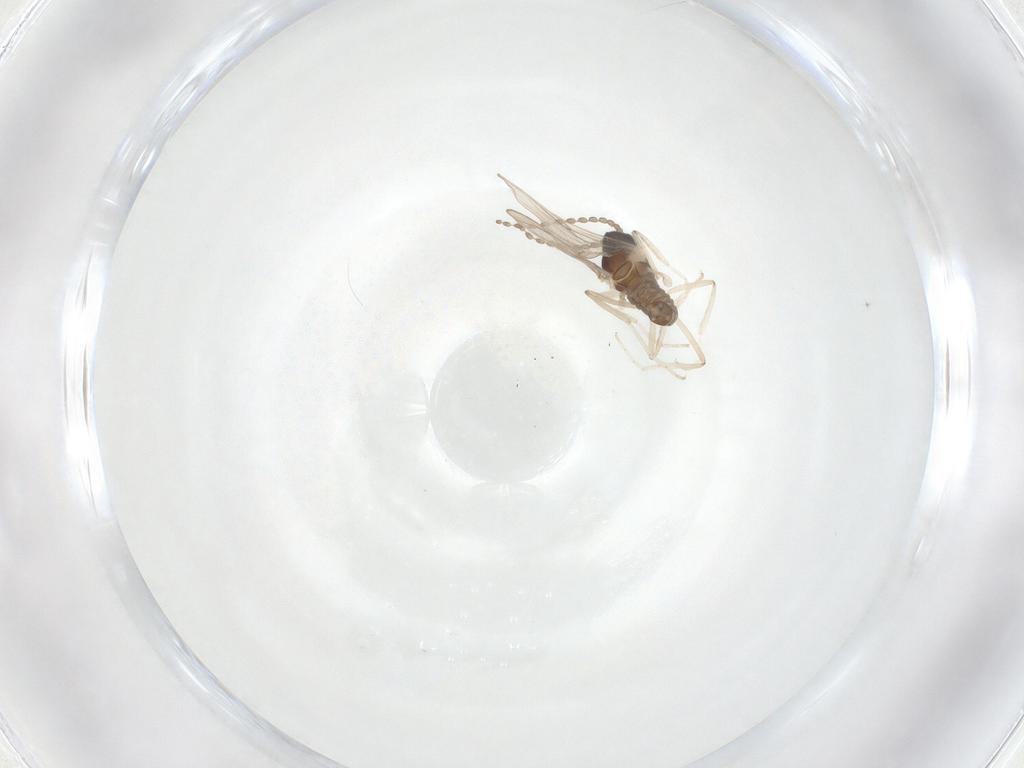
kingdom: Animalia
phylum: Arthropoda
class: Insecta
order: Diptera
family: Cecidomyiidae
